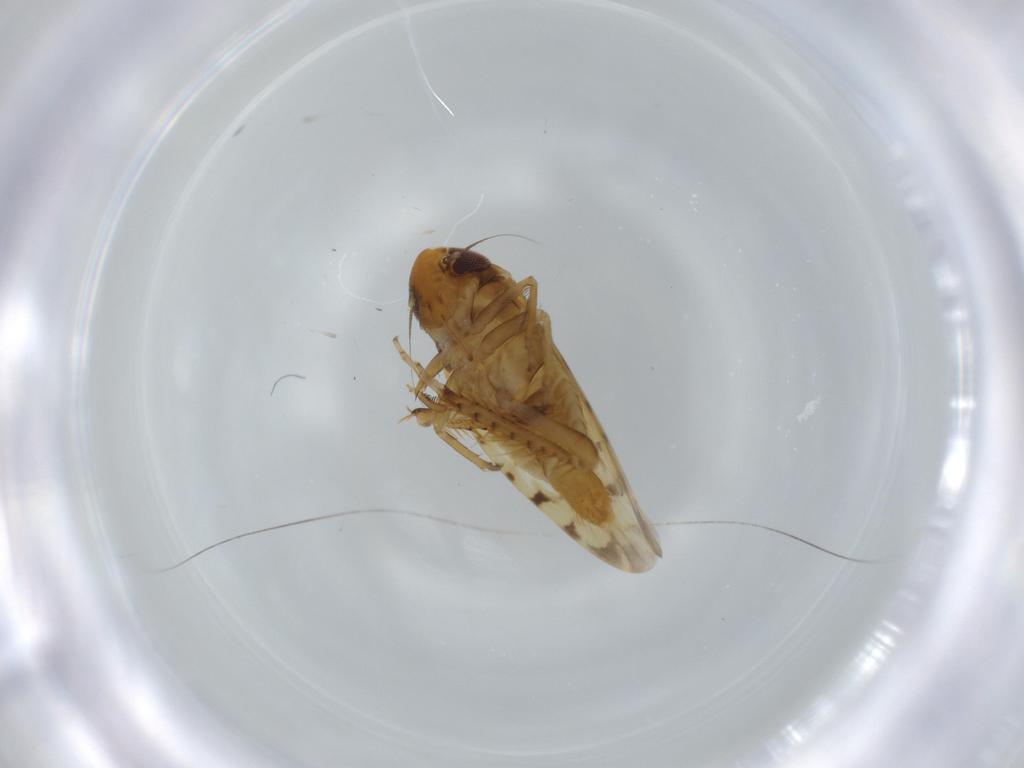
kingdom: Animalia
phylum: Arthropoda
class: Insecta
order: Hemiptera
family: Cicadellidae
